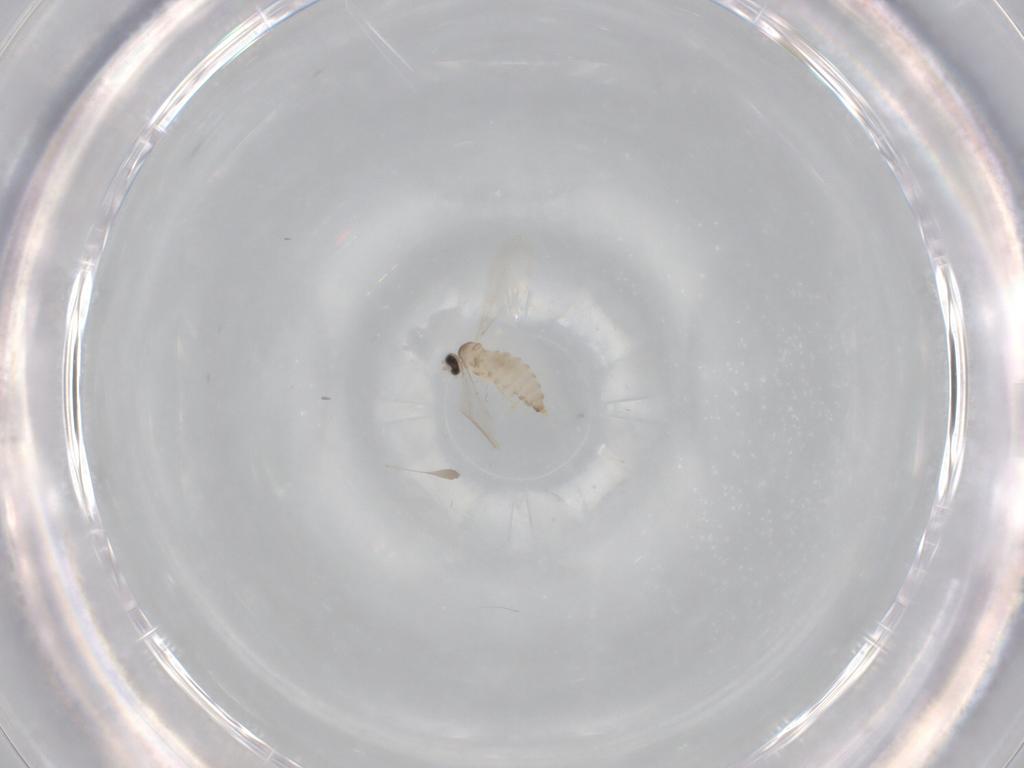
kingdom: Animalia
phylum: Arthropoda
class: Insecta
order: Diptera
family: Cecidomyiidae
